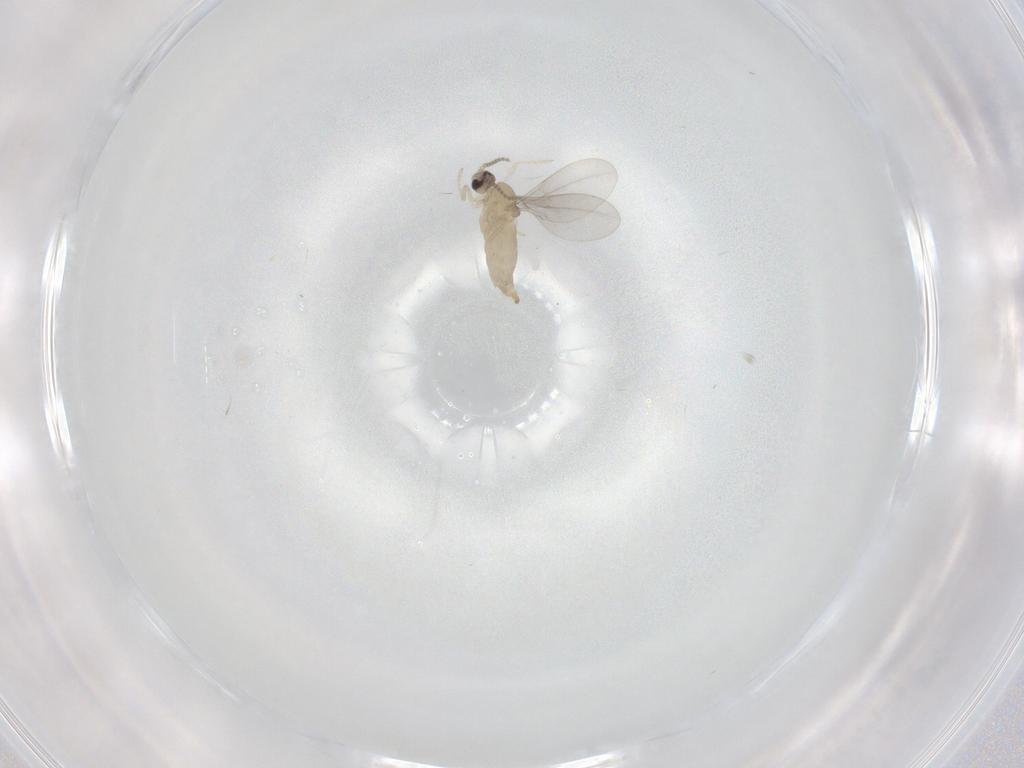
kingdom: Animalia
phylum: Arthropoda
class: Insecta
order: Diptera
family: Cecidomyiidae
